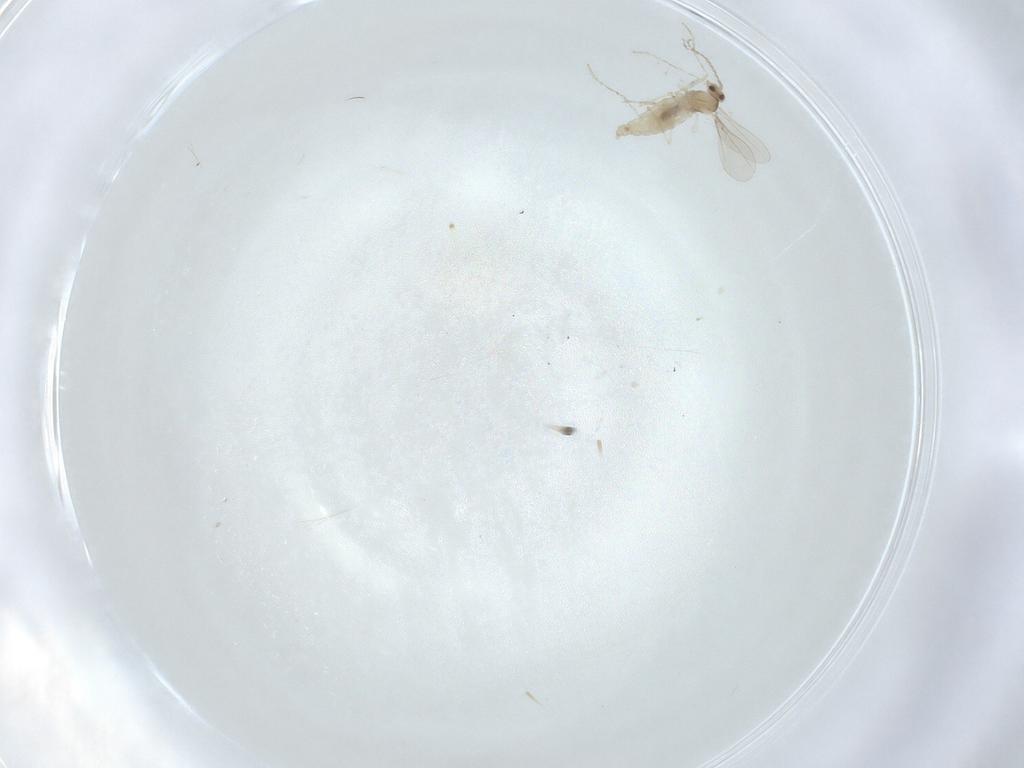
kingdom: Animalia
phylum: Arthropoda
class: Insecta
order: Diptera
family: Cecidomyiidae
